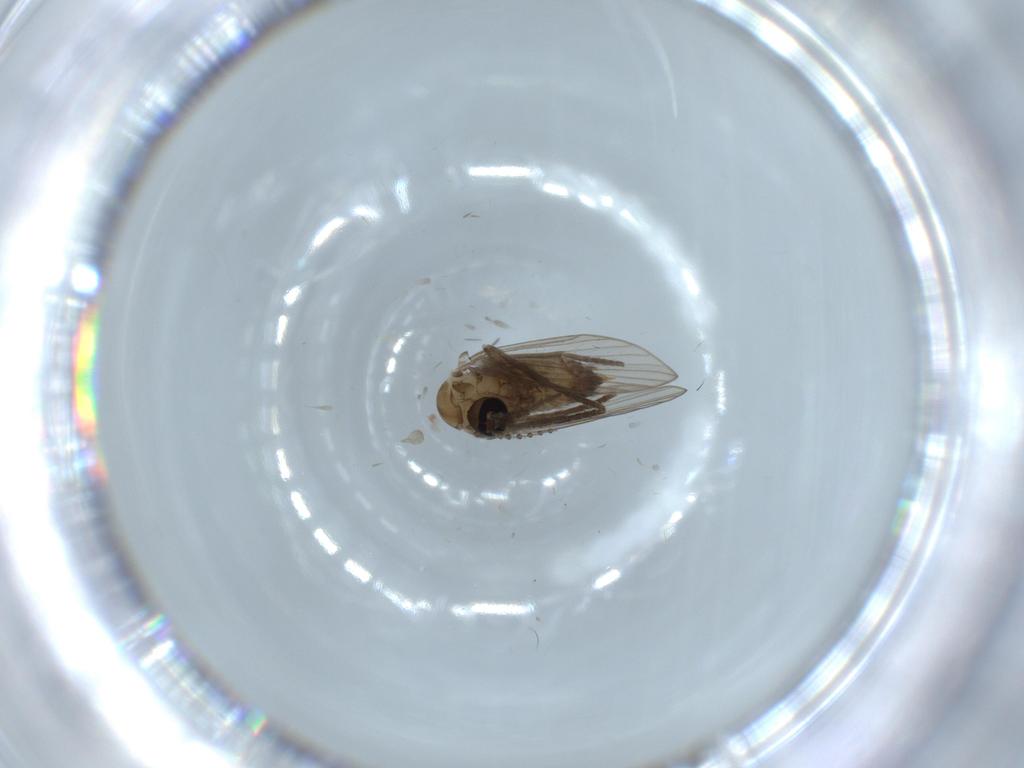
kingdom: Animalia
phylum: Arthropoda
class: Insecta
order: Diptera
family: Psychodidae
